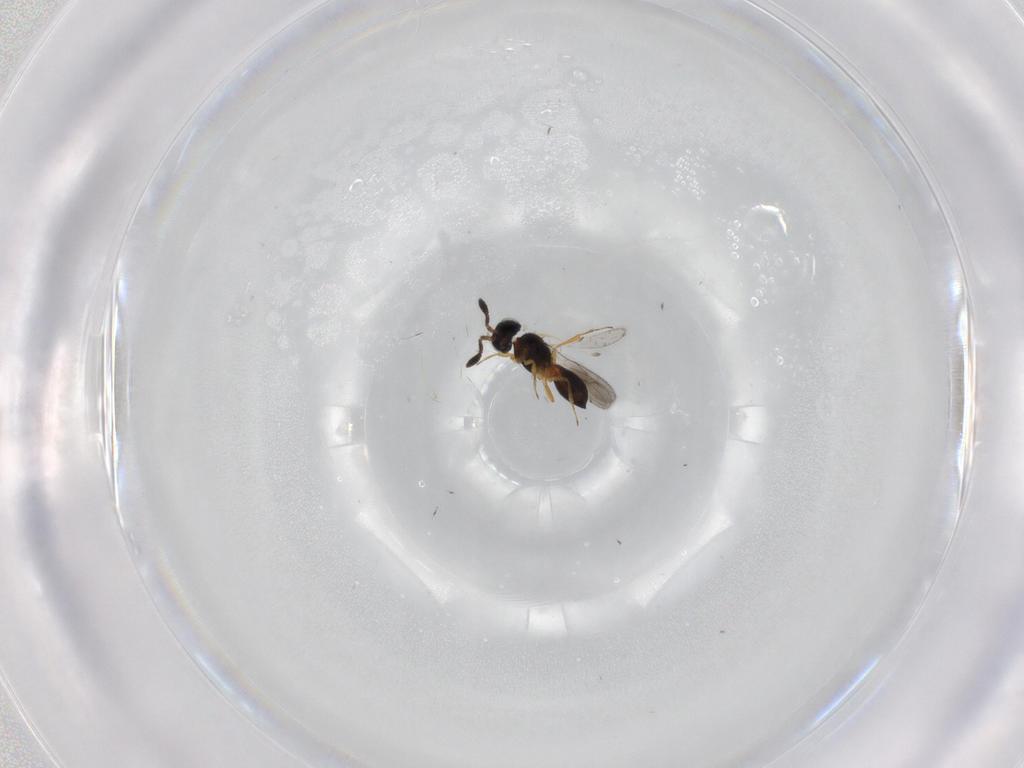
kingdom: Animalia
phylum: Arthropoda
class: Insecta
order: Hymenoptera
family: Scelionidae
